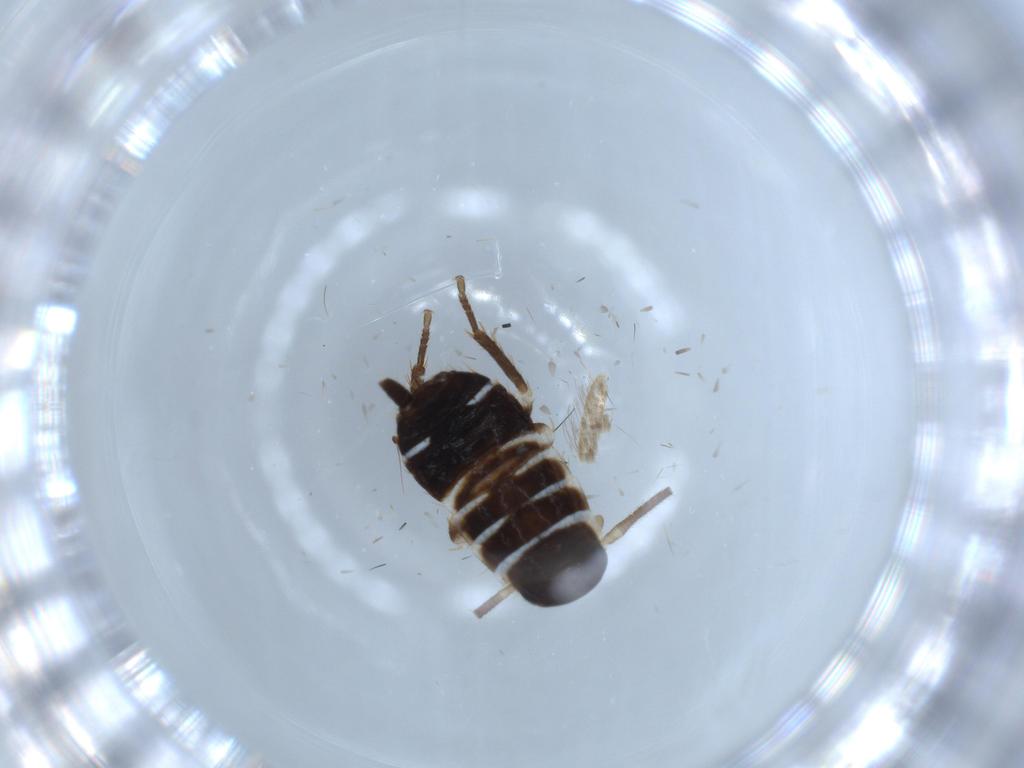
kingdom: Animalia
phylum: Arthropoda
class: Insecta
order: Blattodea
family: Ectobiidae
